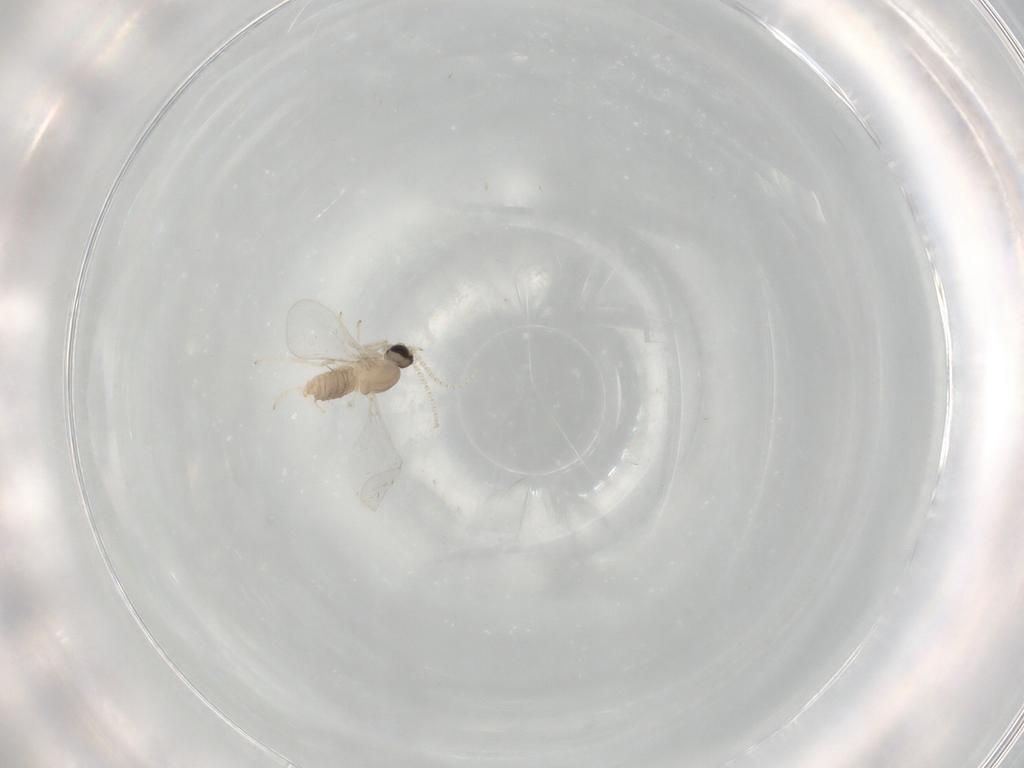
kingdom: Animalia
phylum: Arthropoda
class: Insecta
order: Diptera
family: Cecidomyiidae
